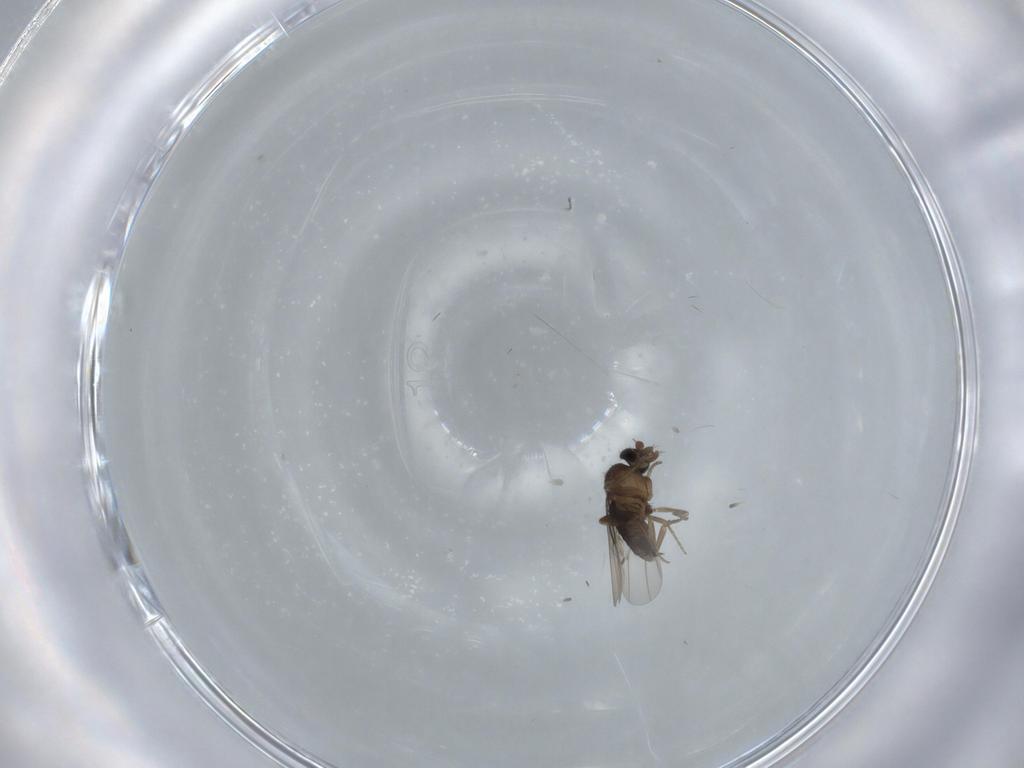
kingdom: Animalia
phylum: Arthropoda
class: Insecta
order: Diptera
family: Phoridae
